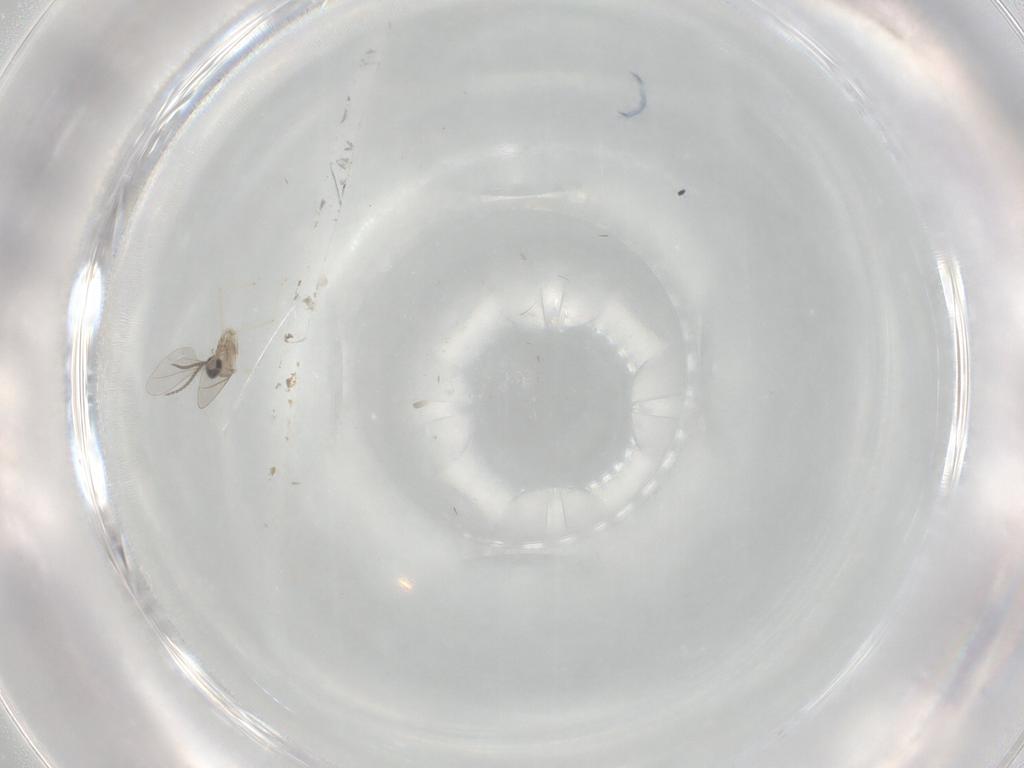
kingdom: Animalia
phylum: Arthropoda
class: Insecta
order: Diptera
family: Cecidomyiidae
